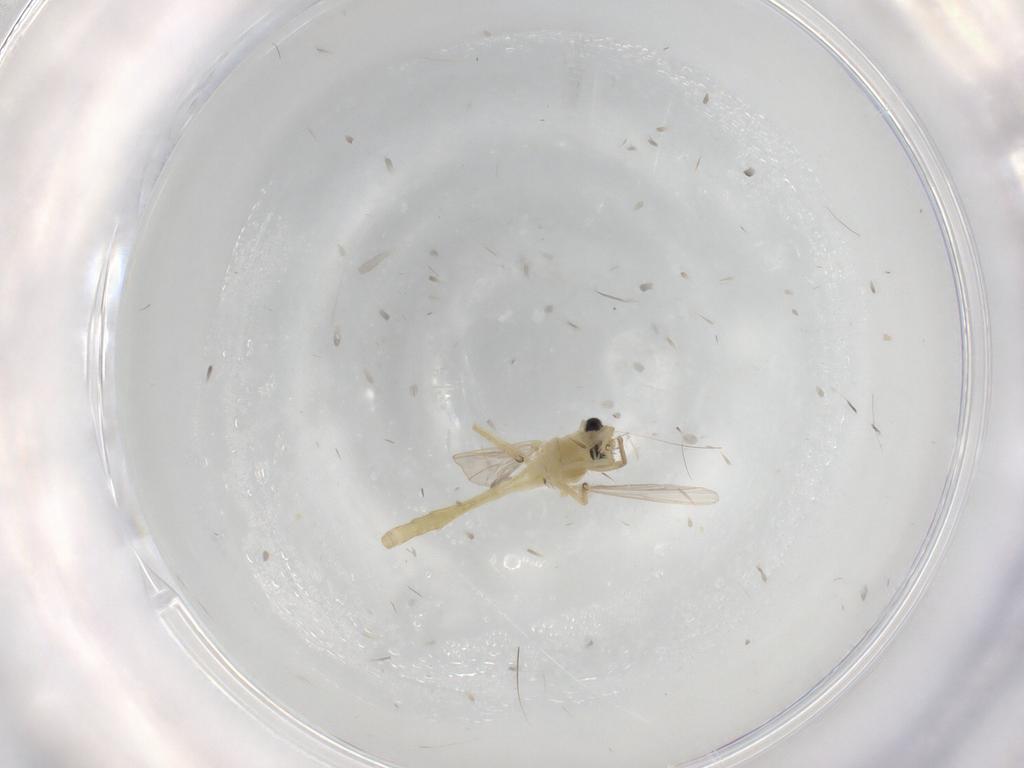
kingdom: Animalia
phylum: Arthropoda
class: Insecta
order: Diptera
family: Chironomidae
